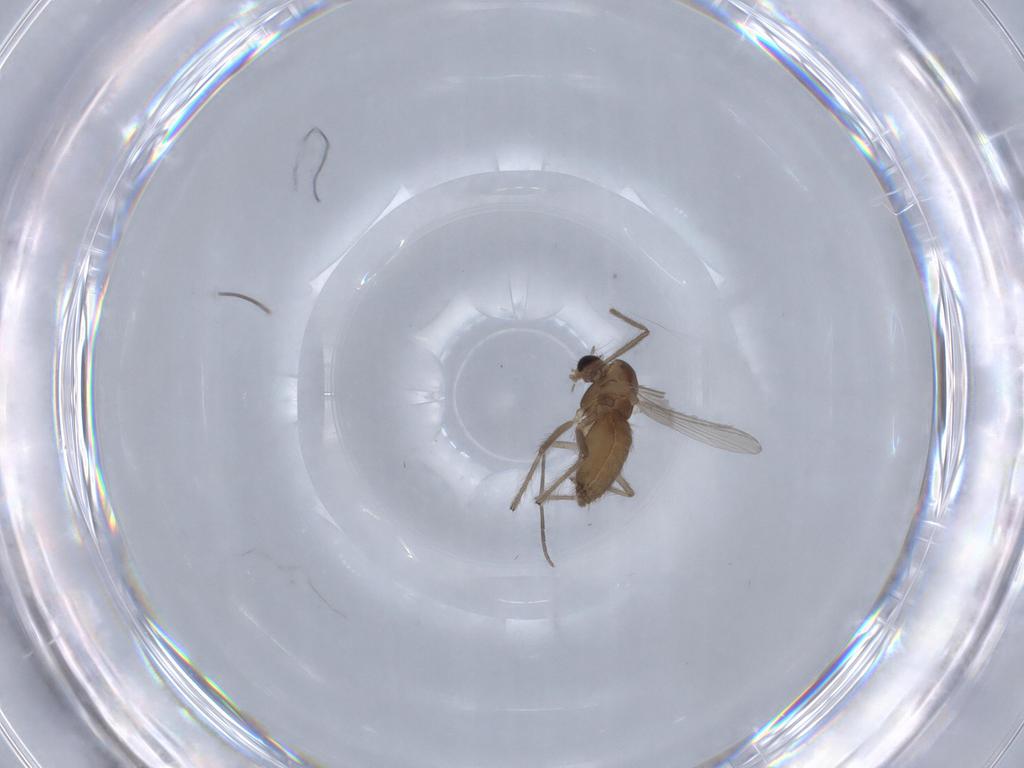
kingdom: Animalia
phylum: Arthropoda
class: Insecta
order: Diptera
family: Chironomidae
